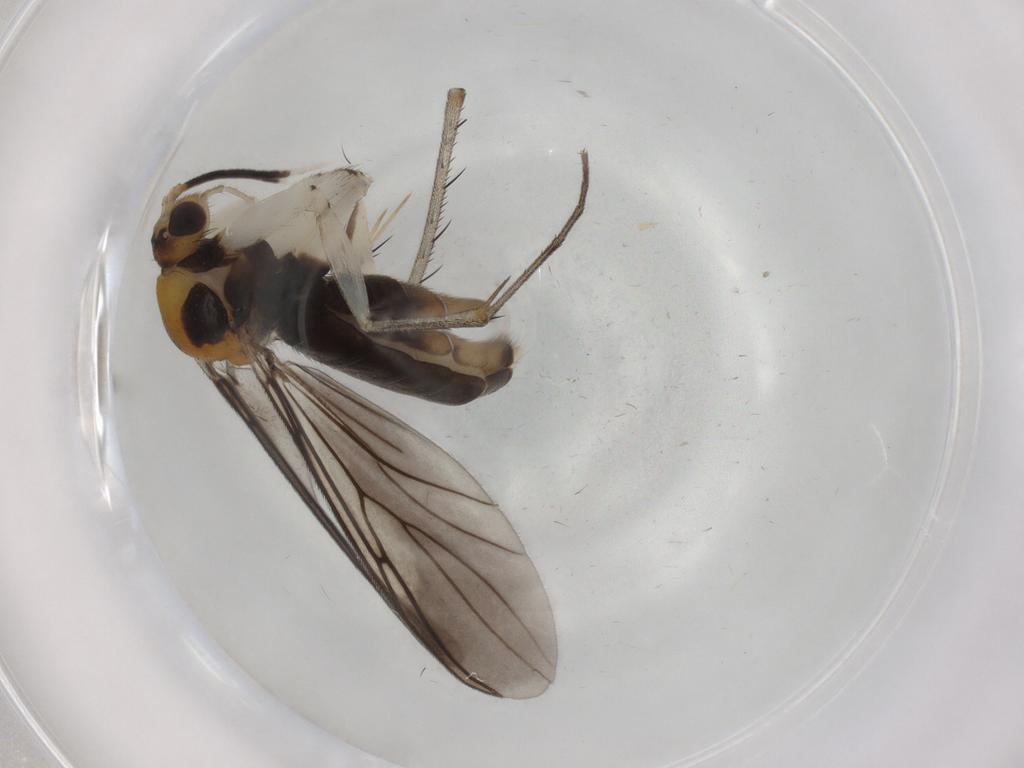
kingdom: Animalia
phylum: Arthropoda
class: Insecta
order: Diptera
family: Mycetophilidae
